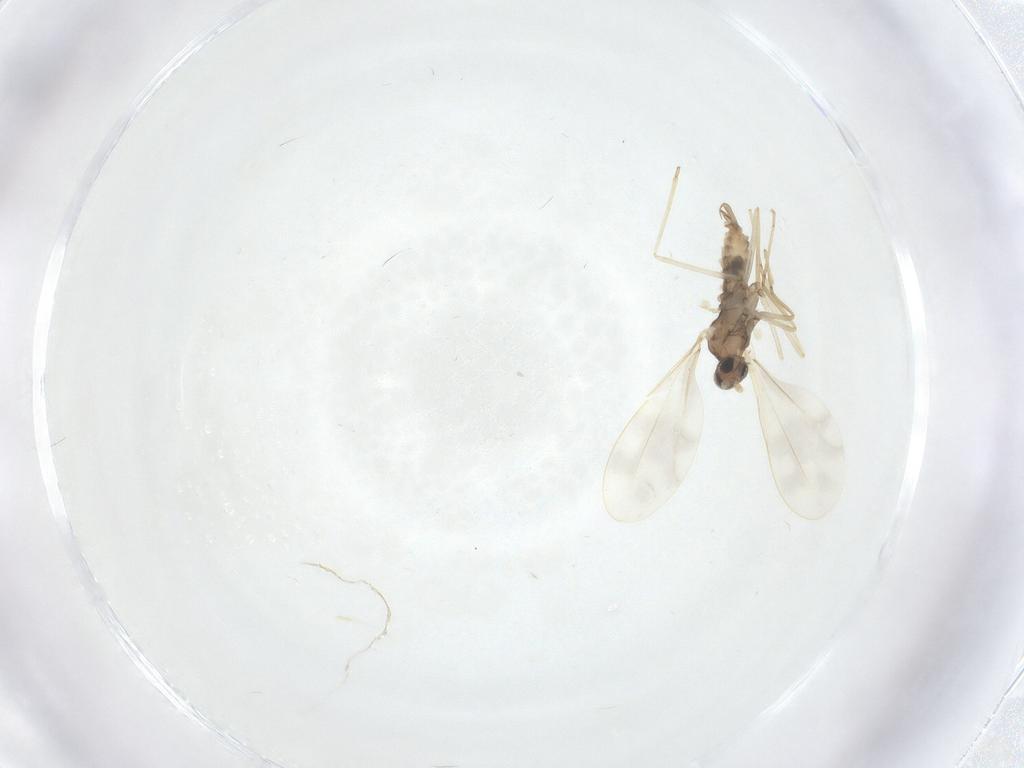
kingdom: Animalia
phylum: Arthropoda
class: Insecta
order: Diptera
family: Cecidomyiidae
